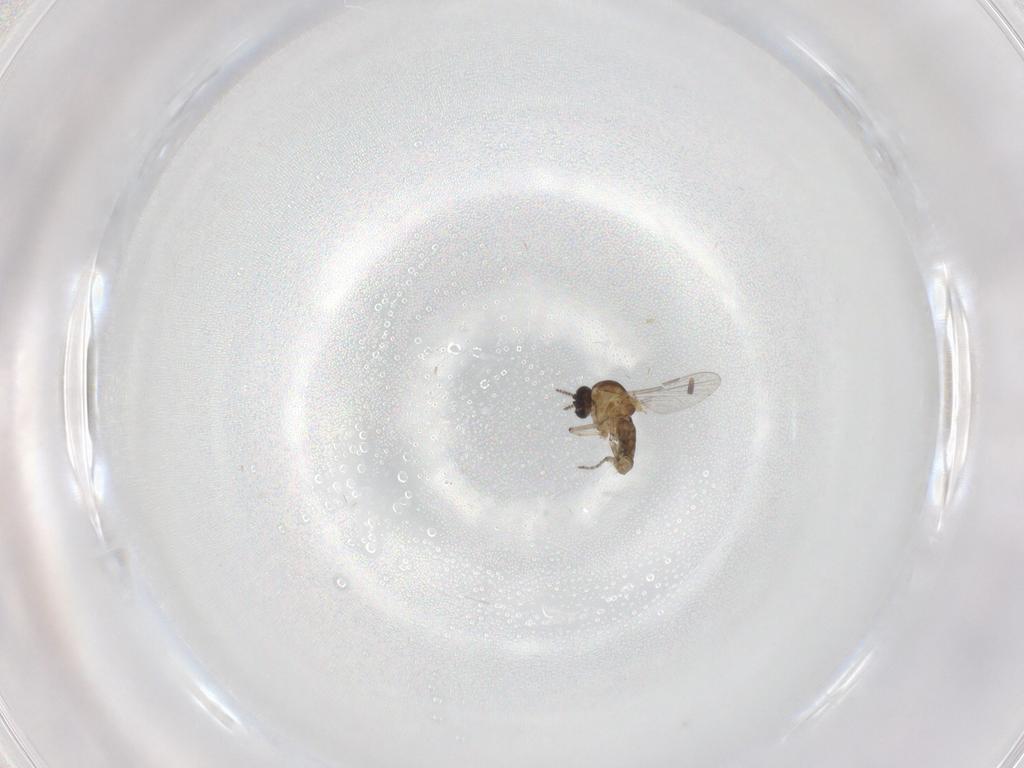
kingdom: Animalia
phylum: Arthropoda
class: Insecta
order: Diptera
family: Ceratopogonidae
